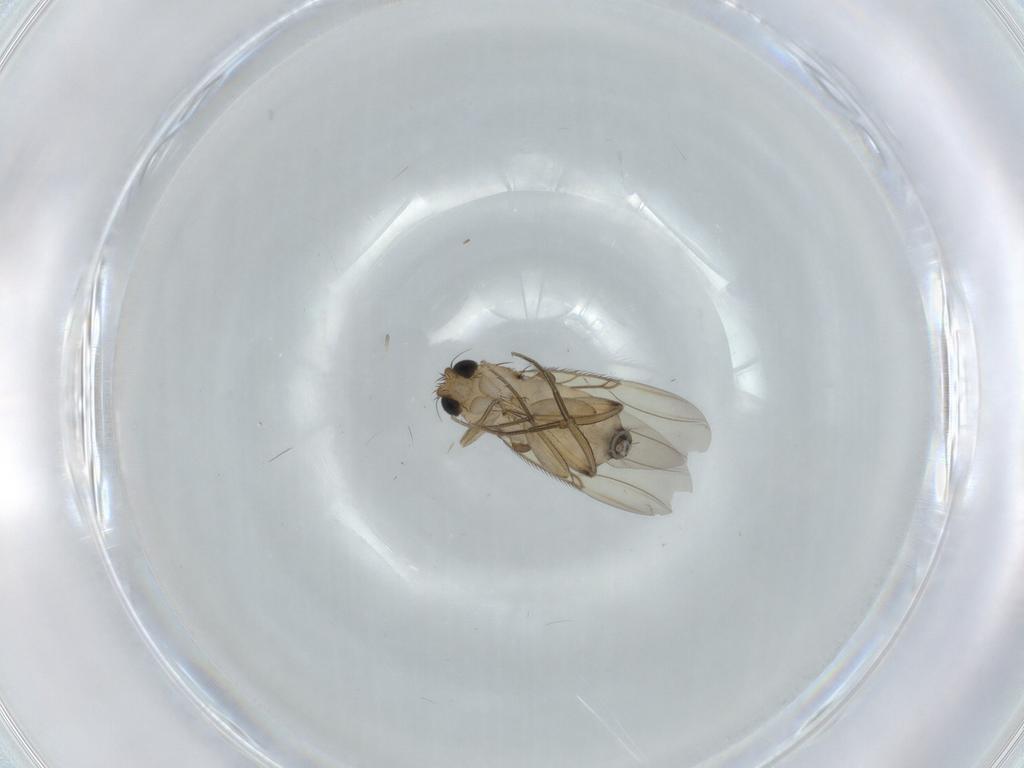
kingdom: Animalia
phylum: Arthropoda
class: Insecta
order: Diptera
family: Phoridae
